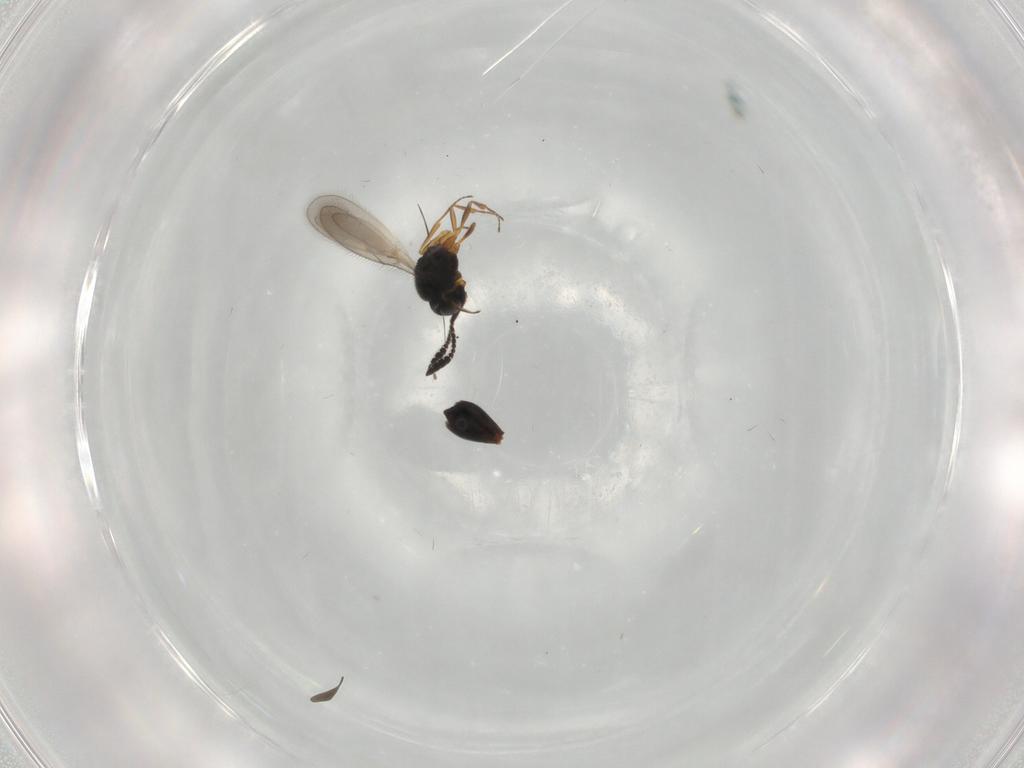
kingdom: Animalia
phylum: Arthropoda
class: Insecta
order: Hymenoptera
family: Scelionidae
